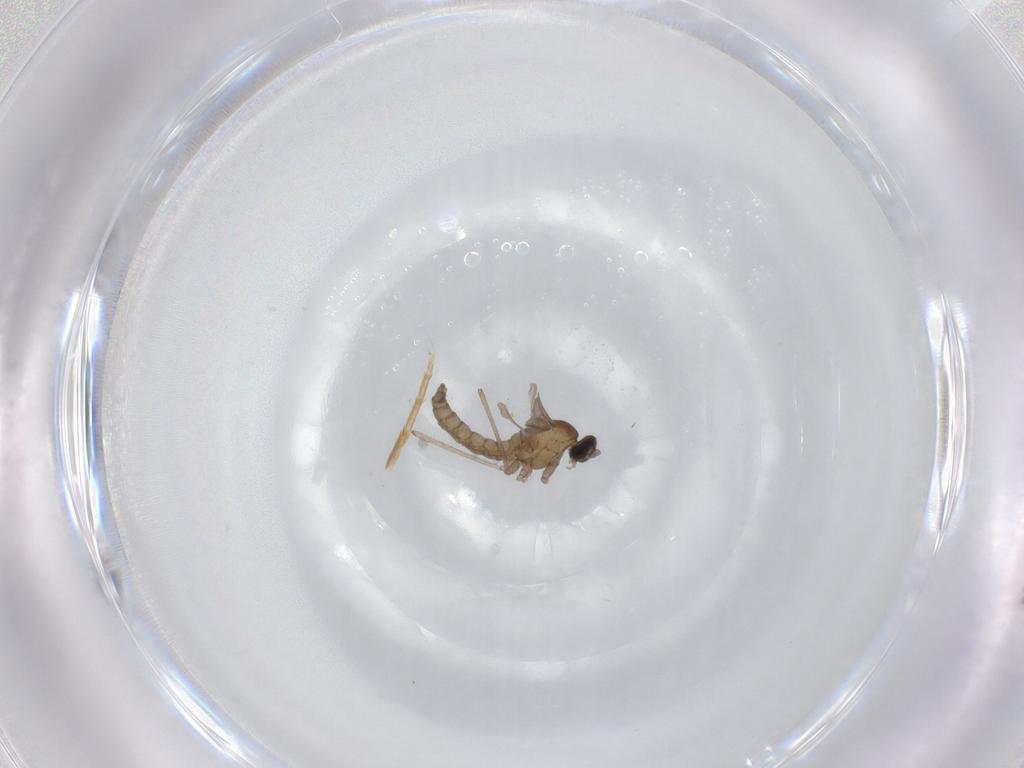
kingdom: Animalia
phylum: Arthropoda
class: Insecta
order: Diptera
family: Cecidomyiidae
